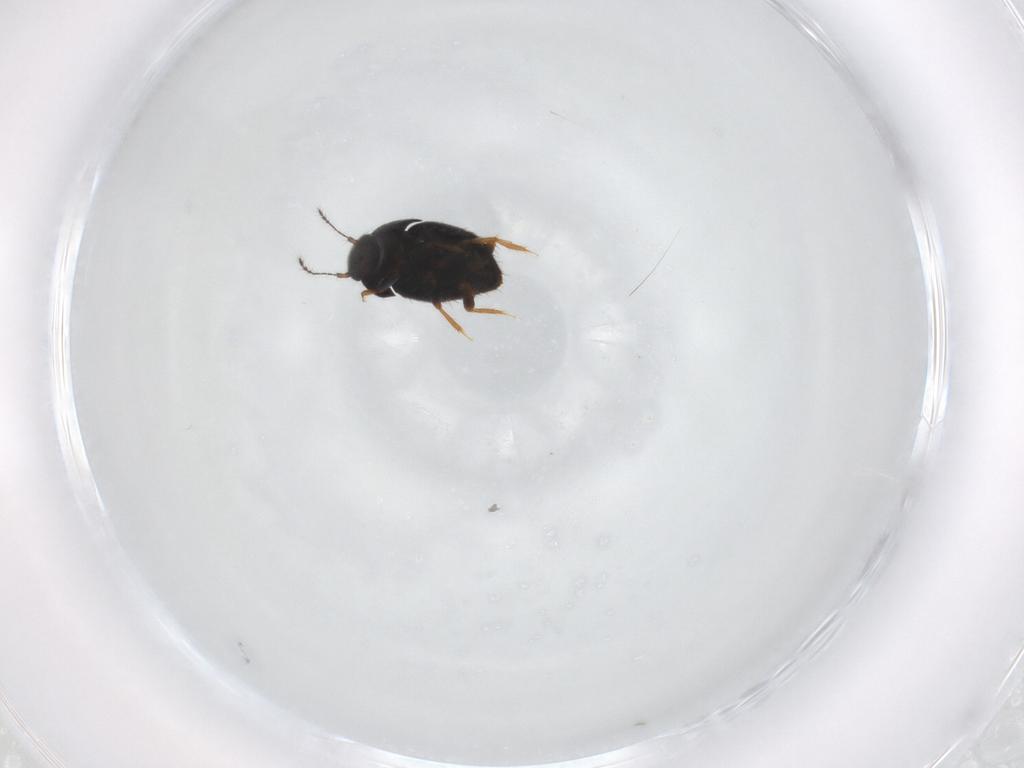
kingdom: Animalia
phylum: Arthropoda
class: Insecta
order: Coleoptera
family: Ptiliidae
